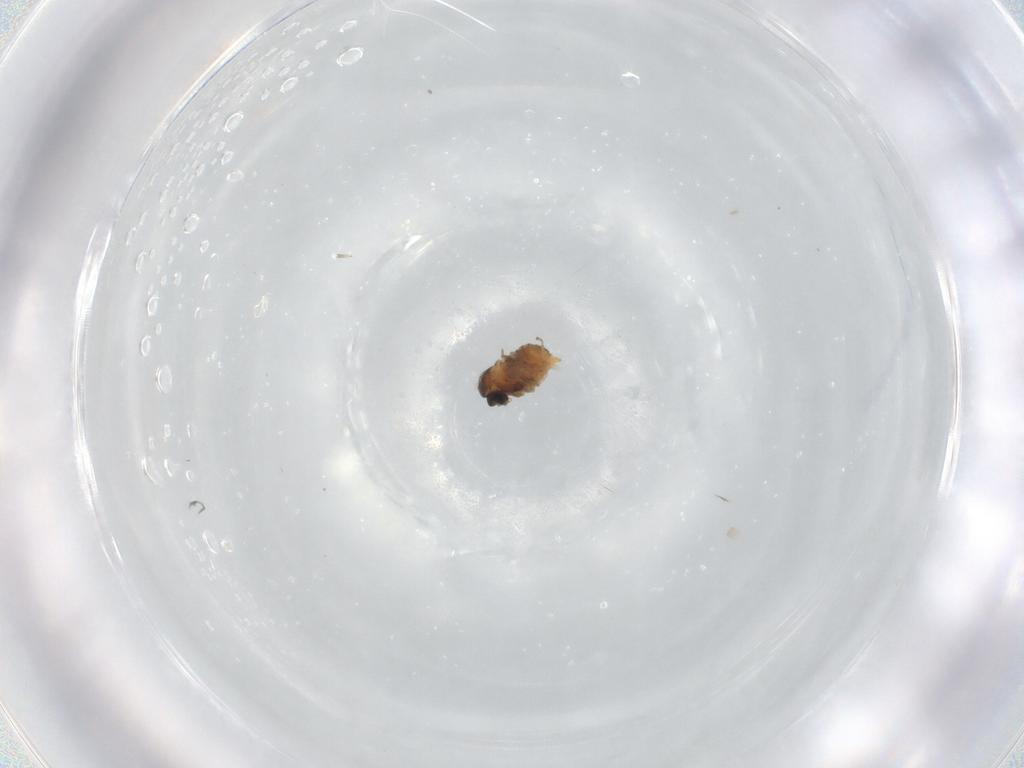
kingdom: Animalia
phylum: Arthropoda
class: Insecta
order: Diptera
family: Cecidomyiidae
